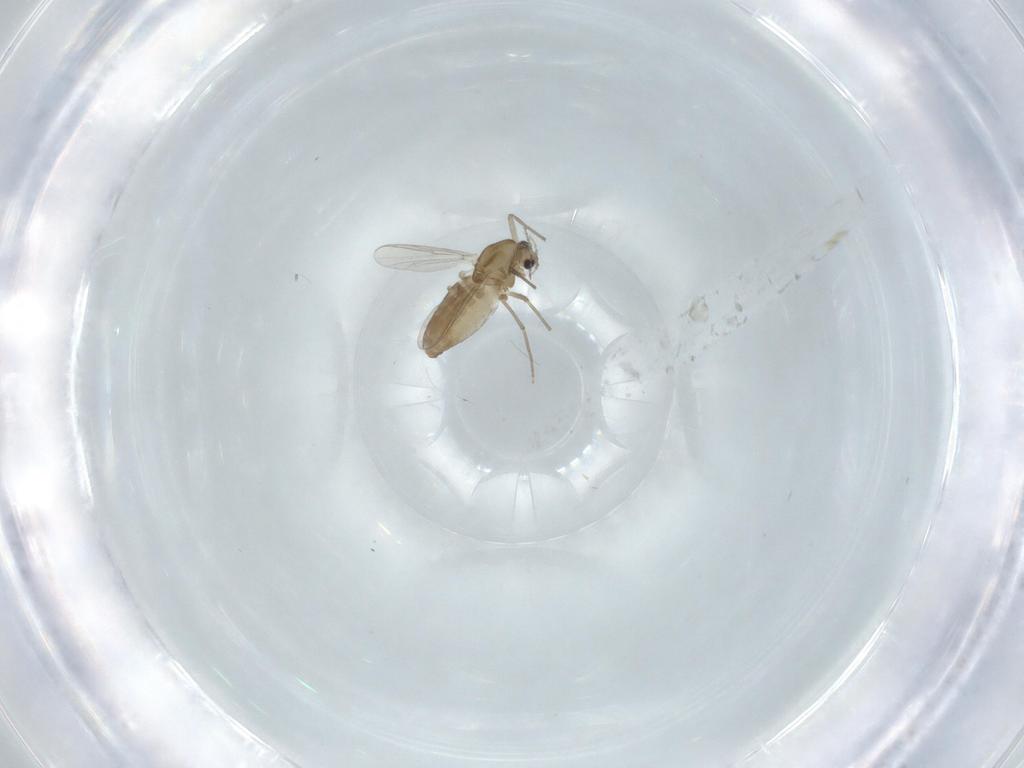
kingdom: Animalia
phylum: Arthropoda
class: Insecta
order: Diptera
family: Chironomidae
